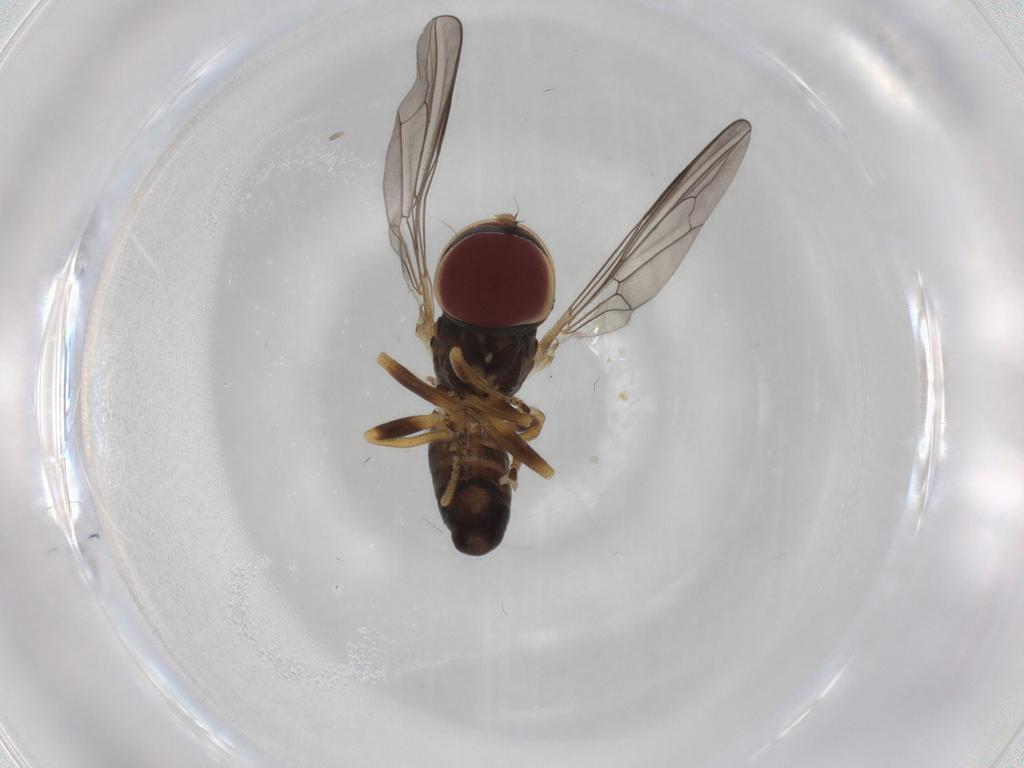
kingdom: Animalia
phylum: Arthropoda
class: Insecta
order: Diptera
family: Pipunculidae
